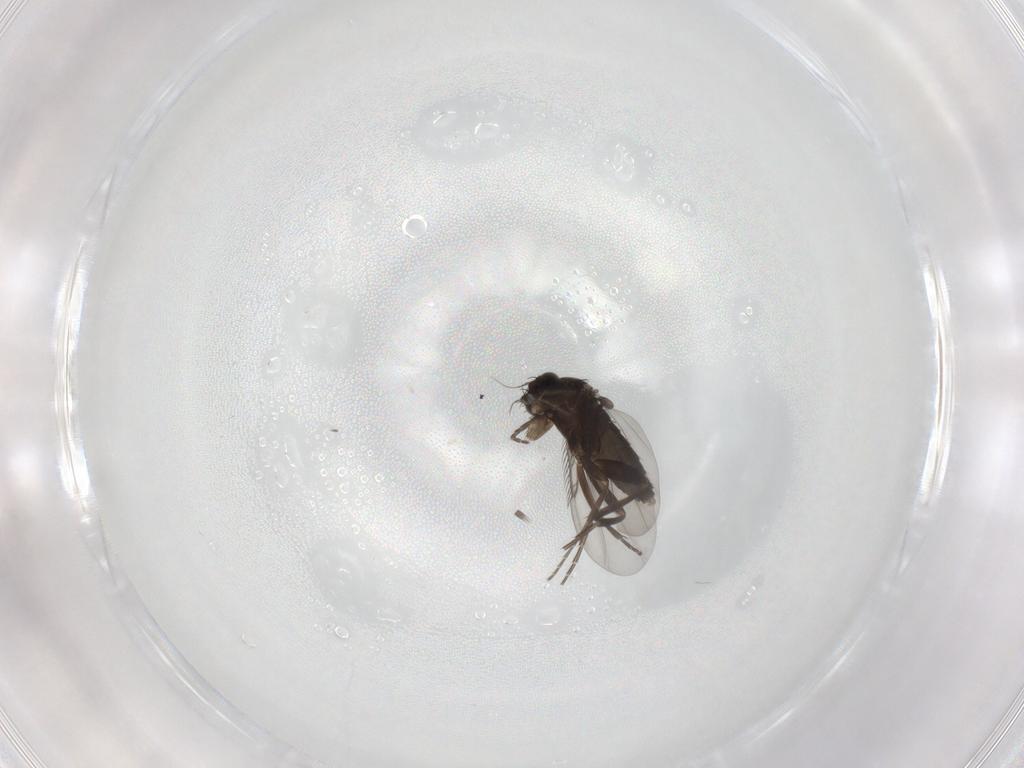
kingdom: Animalia
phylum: Arthropoda
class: Insecta
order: Diptera
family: Phoridae
